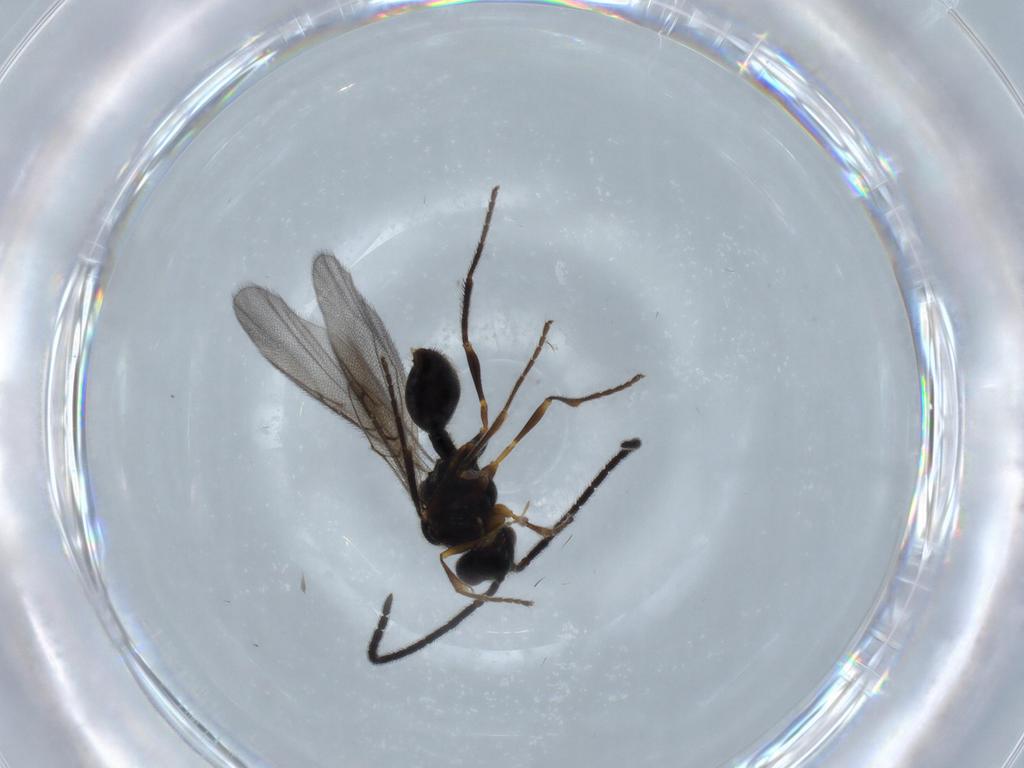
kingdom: Animalia
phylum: Arthropoda
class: Insecta
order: Hymenoptera
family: Diapriidae
